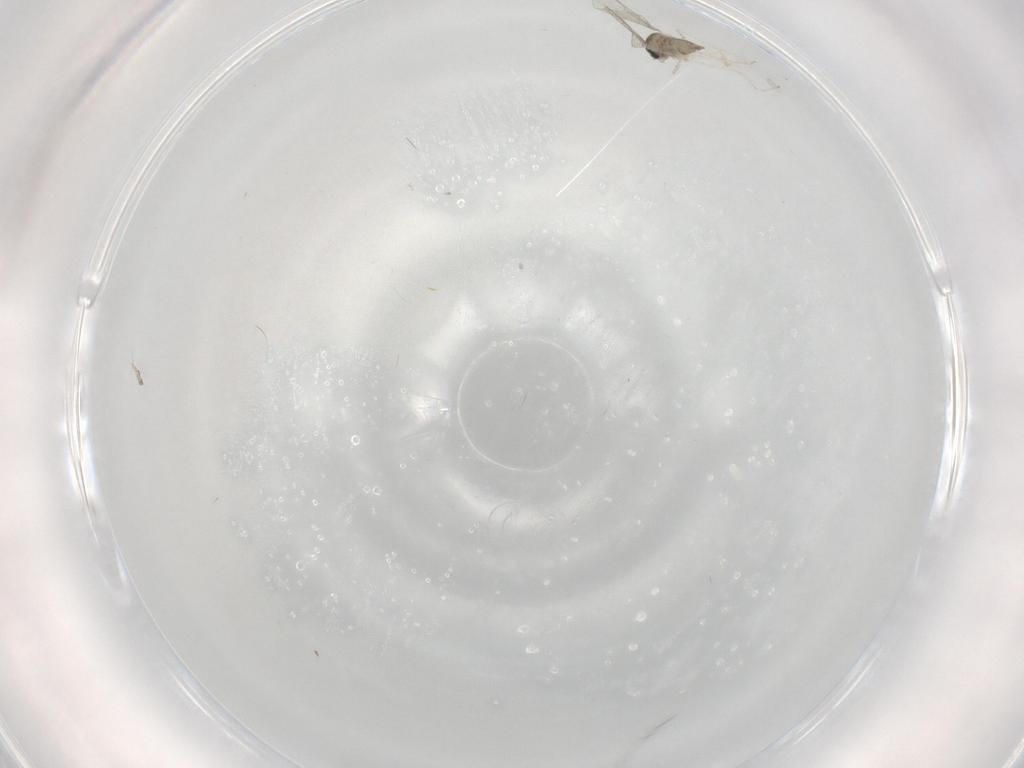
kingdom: Animalia
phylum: Arthropoda
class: Insecta
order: Diptera
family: Cecidomyiidae
